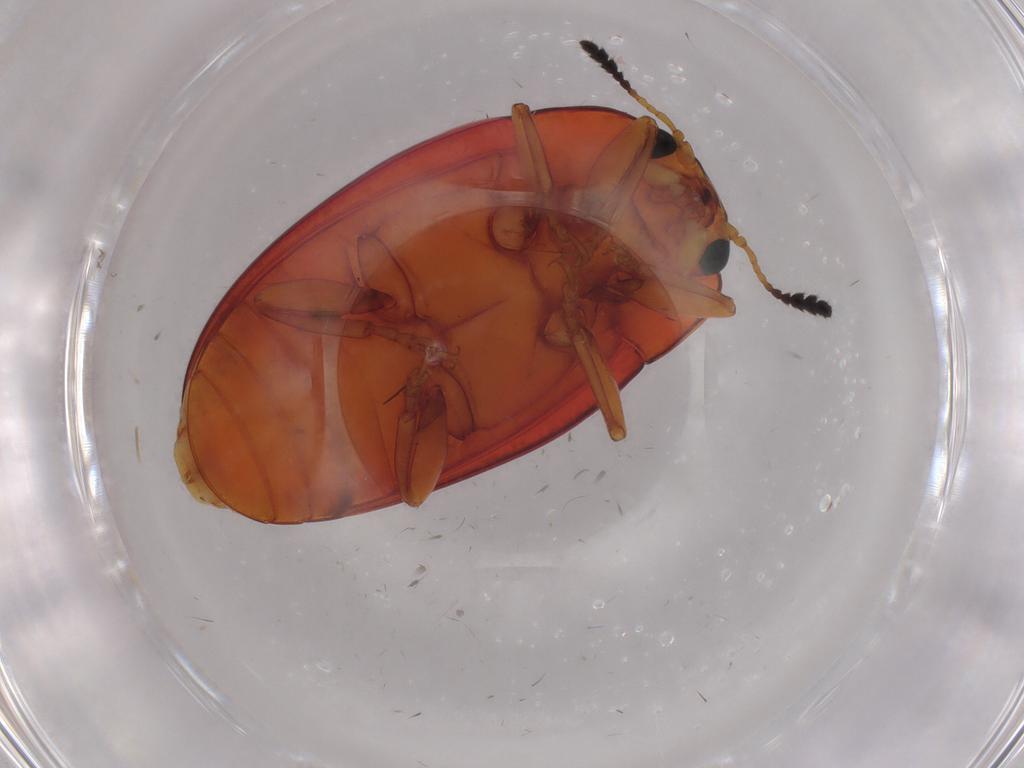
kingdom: Animalia
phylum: Arthropoda
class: Insecta
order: Coleoptera
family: Erotylidae
